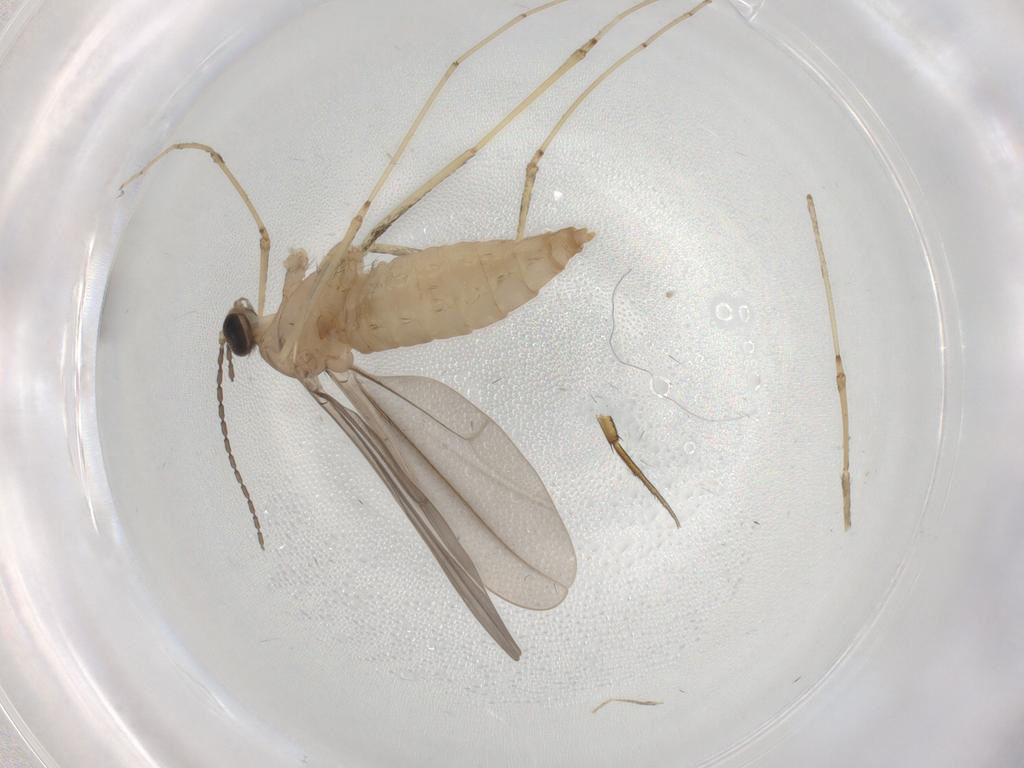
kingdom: Animalia
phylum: Arthropoda
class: Insecta
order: Diptera
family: Cecidomyiidae
